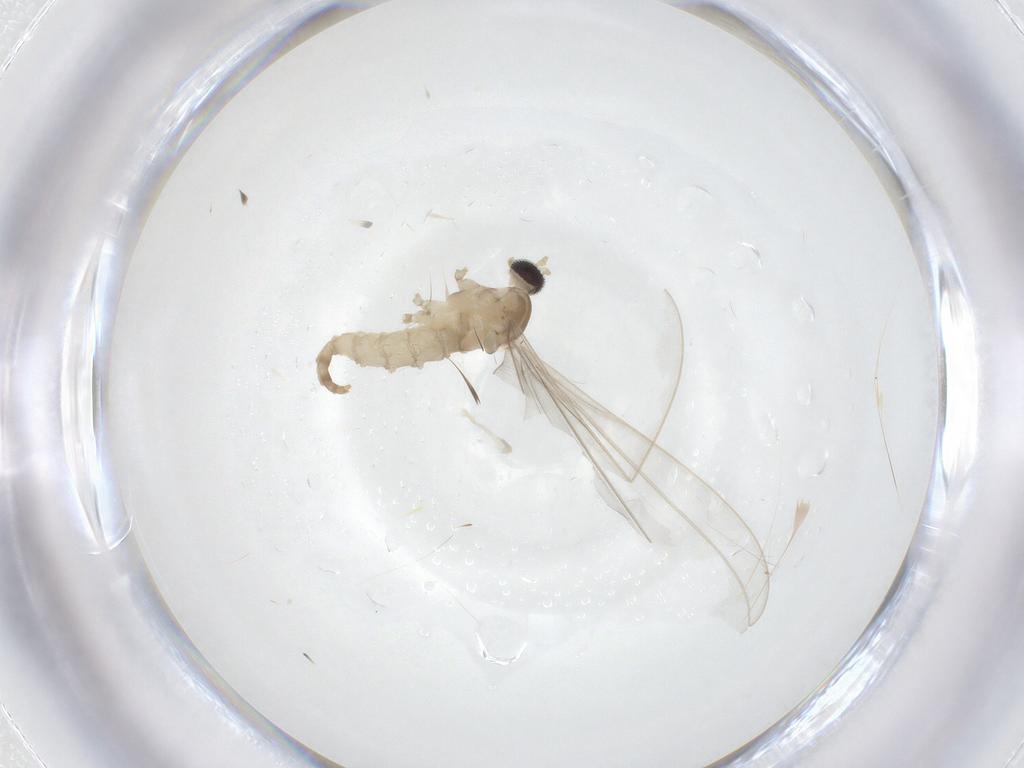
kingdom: Animalia
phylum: Arthropoda
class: Insecta
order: Diptera
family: Cecidomyiidae
